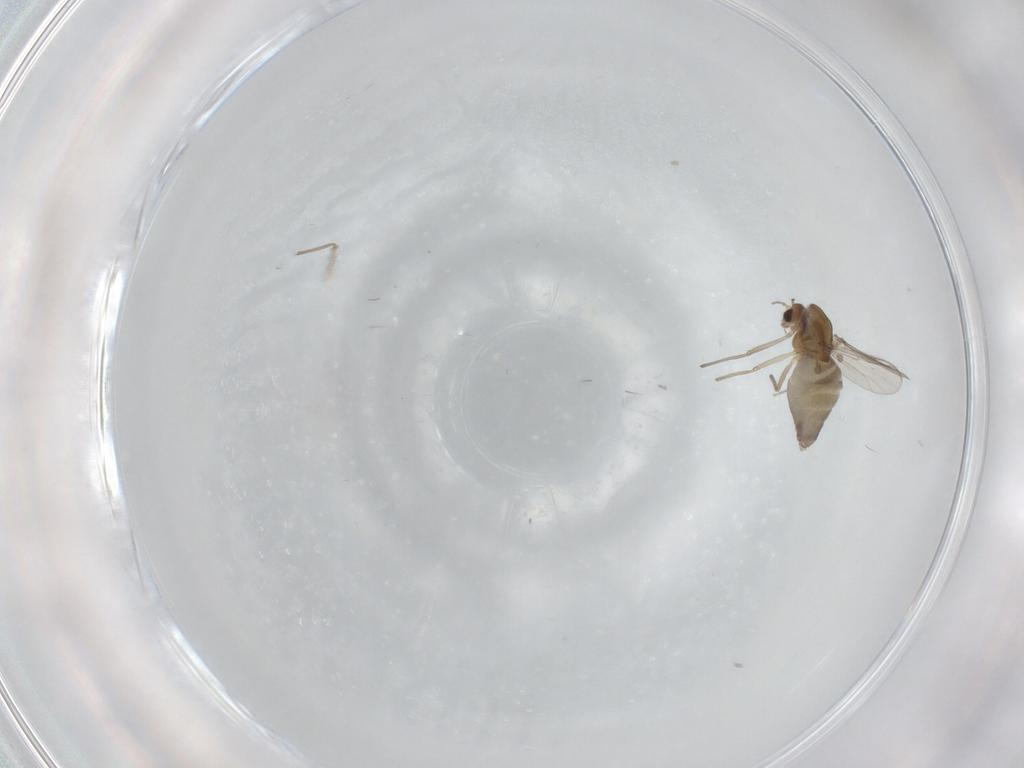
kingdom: Animalia
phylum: Arthropoda
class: Insecta
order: Diptera
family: Chironomidae
